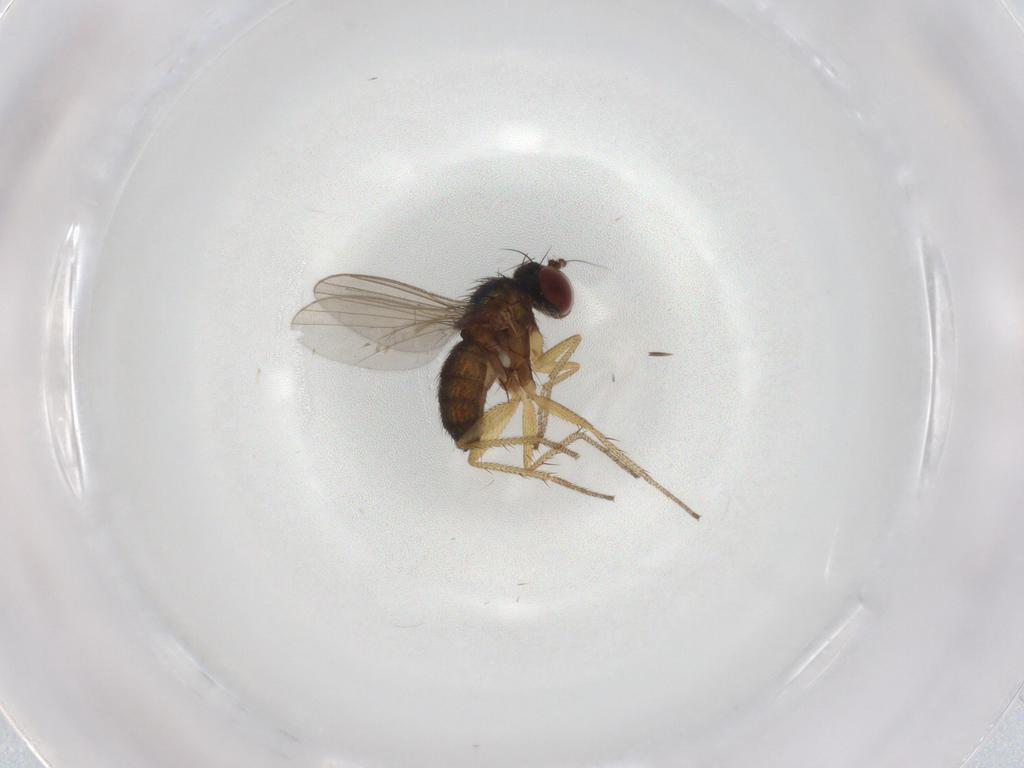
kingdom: Animalia
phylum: Arthropoda
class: Insecta
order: Diptera
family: Dolichopodidae
